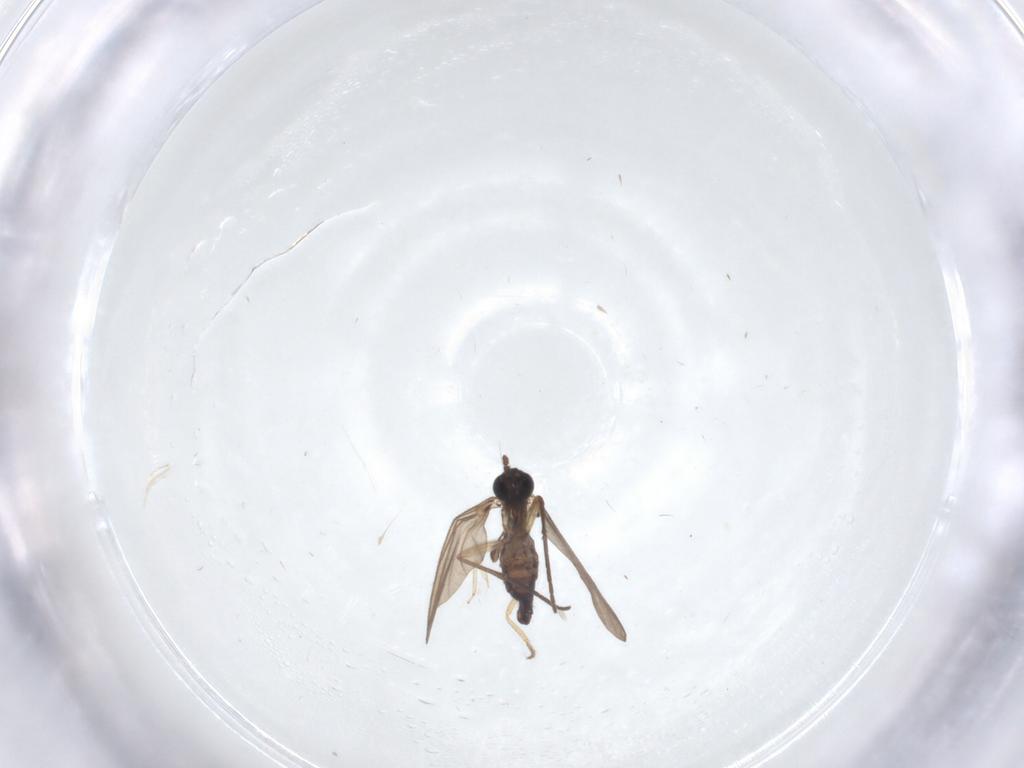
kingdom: Animalia
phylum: Arthropoda
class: Insecta
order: Diptera
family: Sciaridae
